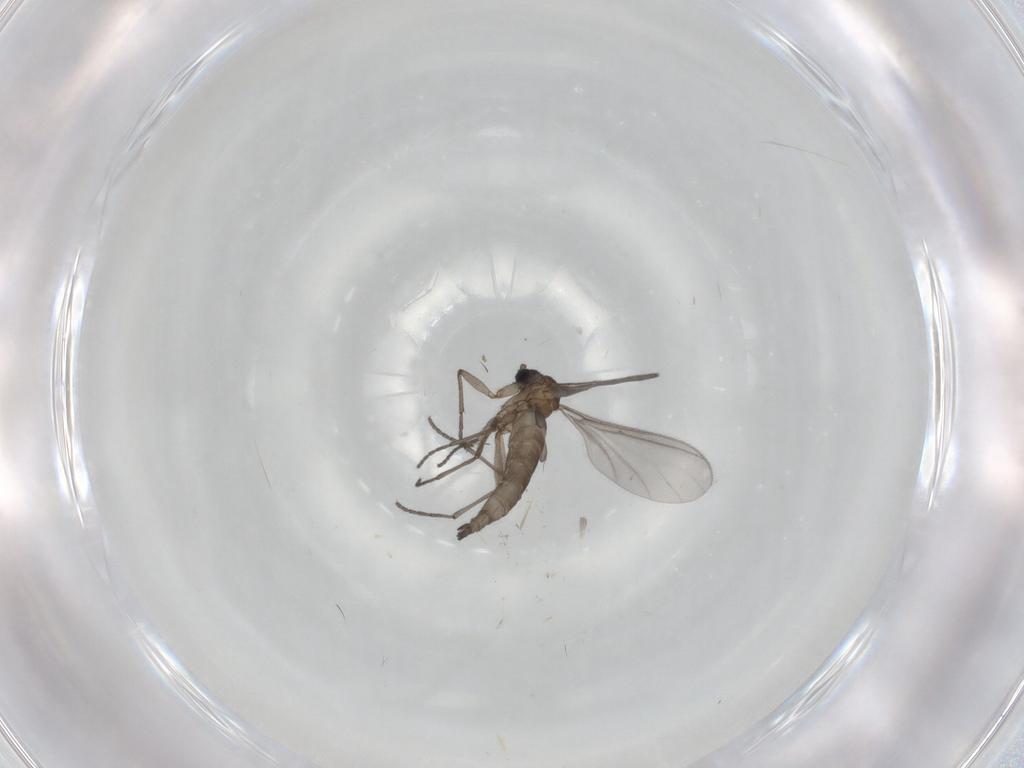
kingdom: Animalia
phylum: Arthropoda
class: Insecta
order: Diptera
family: Sciaridae
